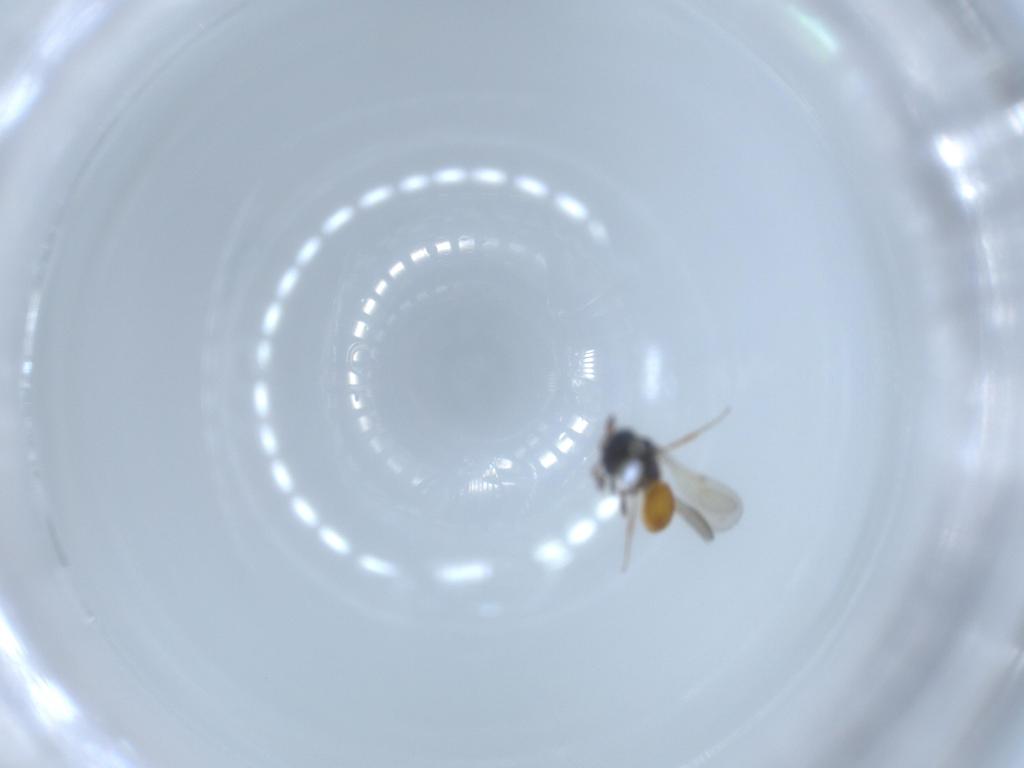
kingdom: Animalia
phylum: Arthropoda
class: Insecta
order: Hymenoptera
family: Scelionidae
